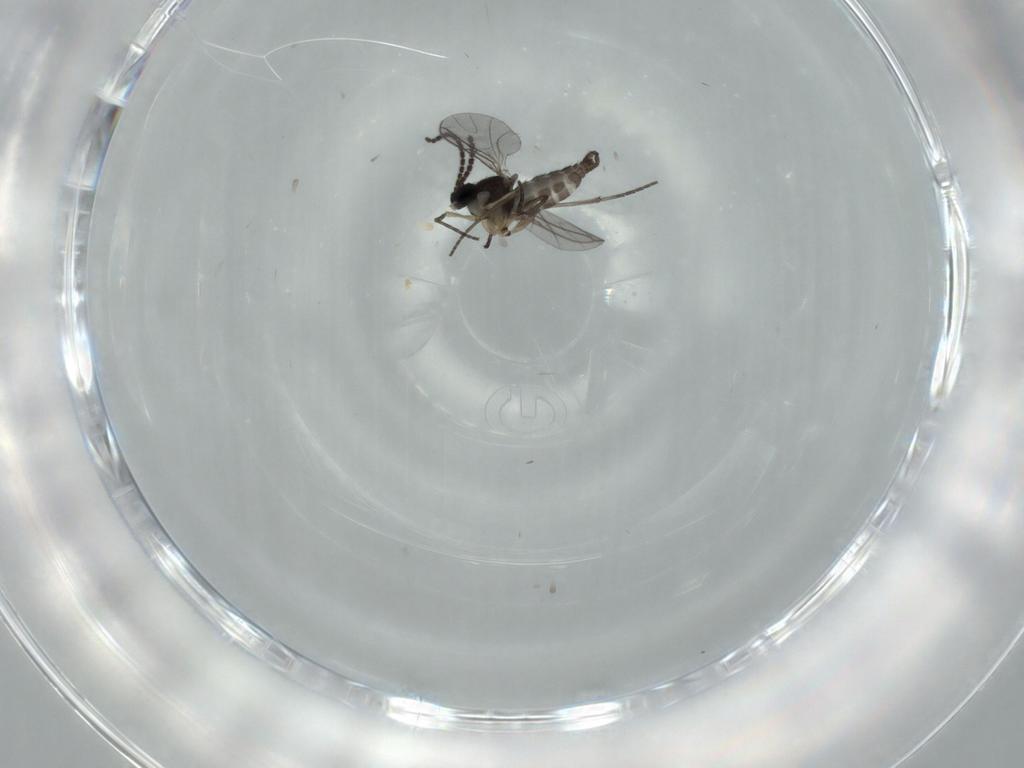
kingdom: Animalia
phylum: Arthropoda
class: Insecta
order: Diptera
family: Sciaridae
